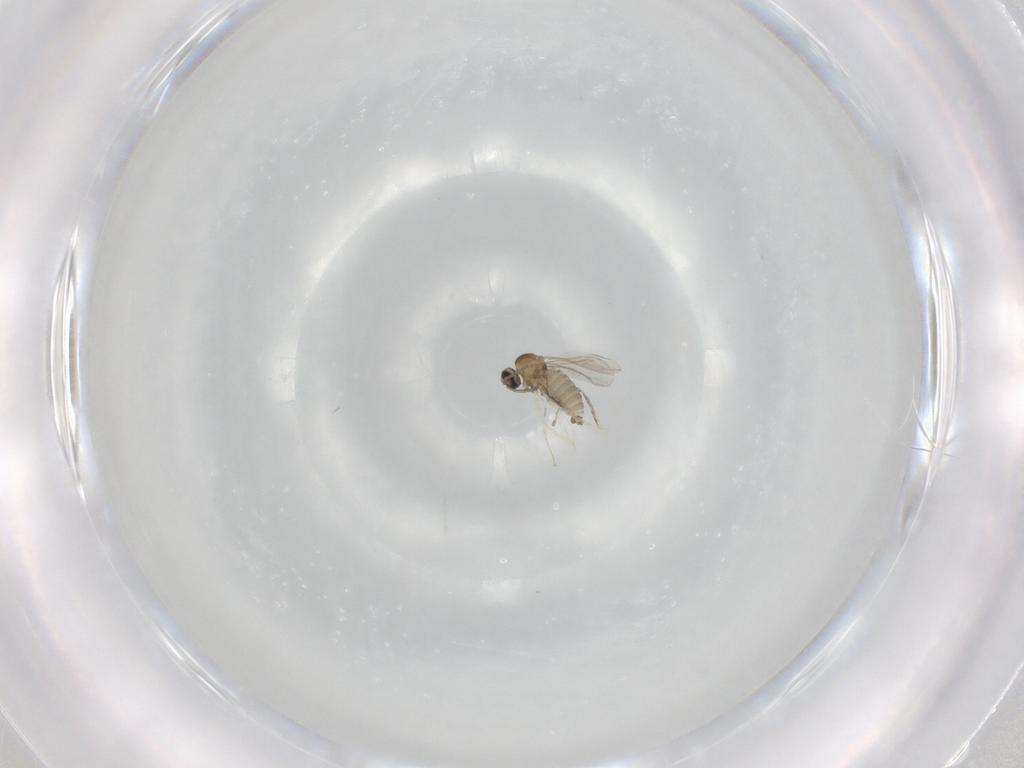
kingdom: Animalia
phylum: Arthropoda
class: Insecta
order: Diptera
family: Cecidomyiidae
